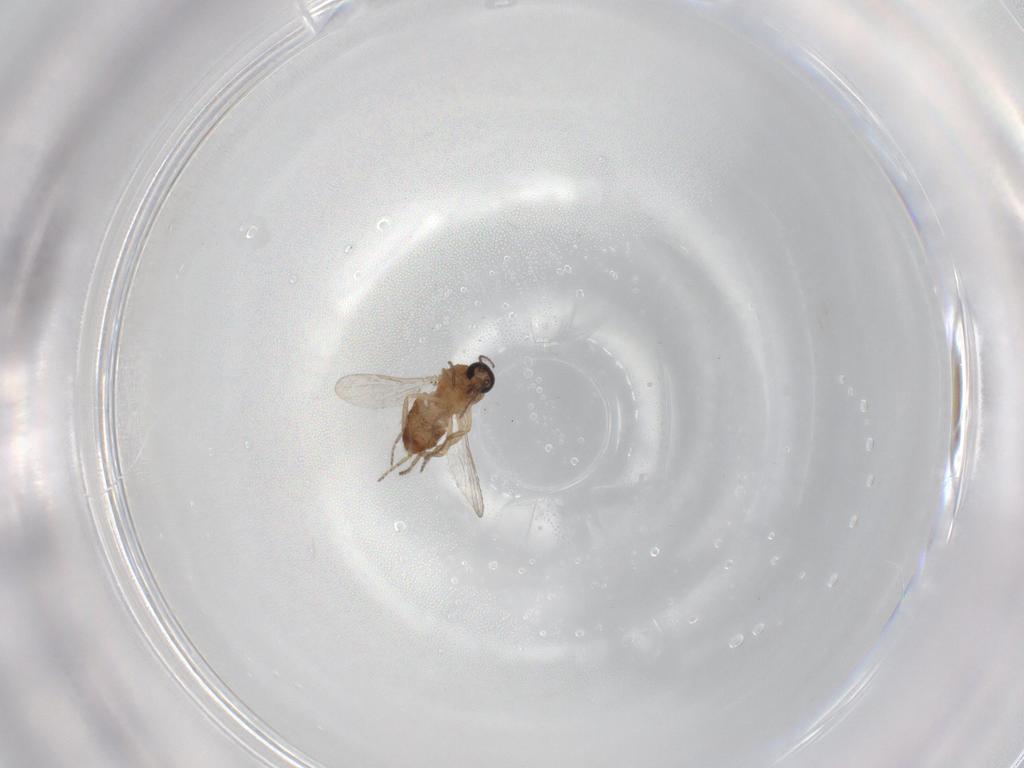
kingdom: Animalia
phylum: Arthropoda
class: Insecta
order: Diptera
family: Ceratopogonidae
